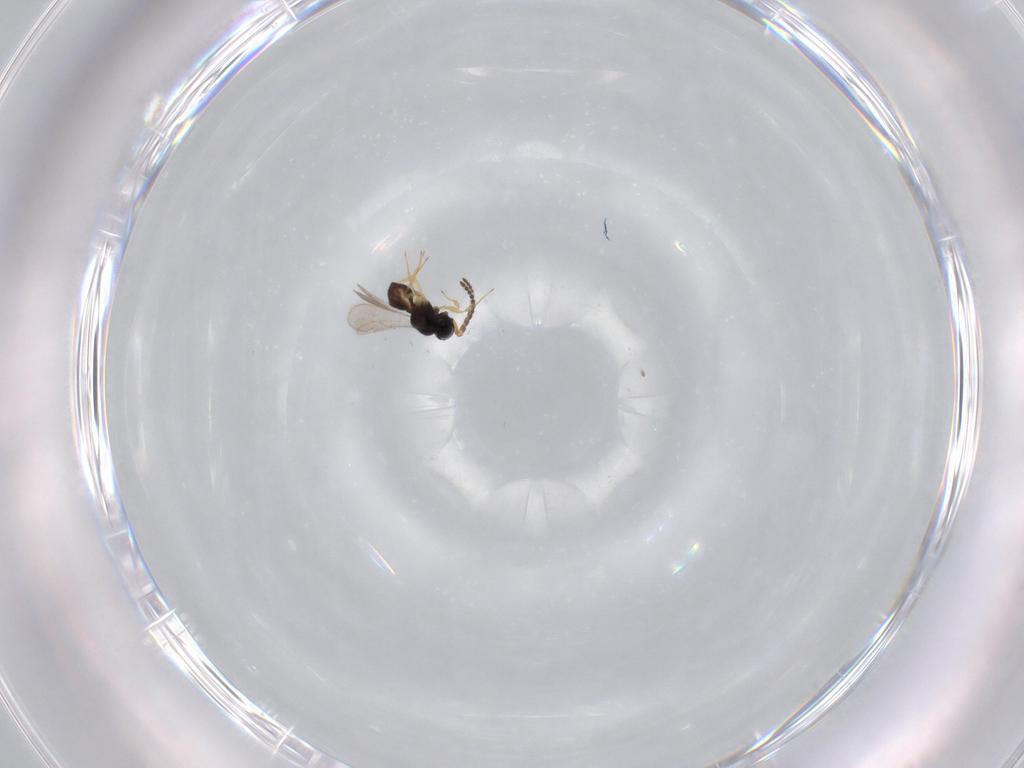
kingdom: Animalia
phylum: Arthropoda
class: Insecta
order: Hymenoptera
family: Scelionidae
